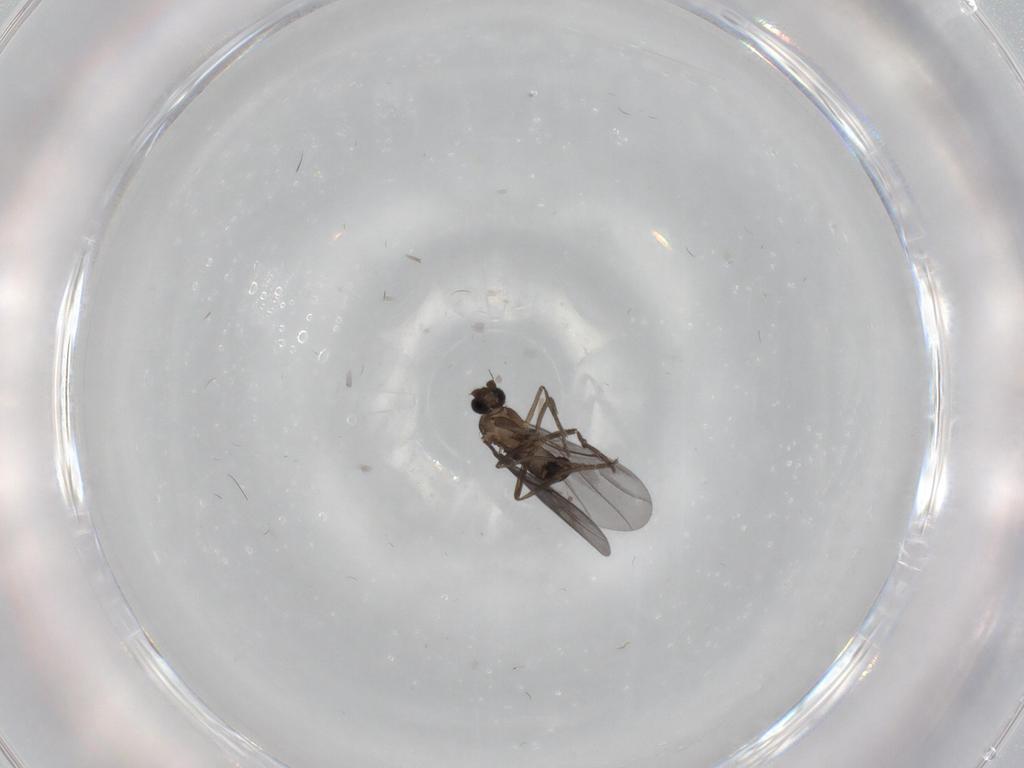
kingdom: Animalia
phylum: Arthropoda
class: Insecta
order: Diptera
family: Phoridae
